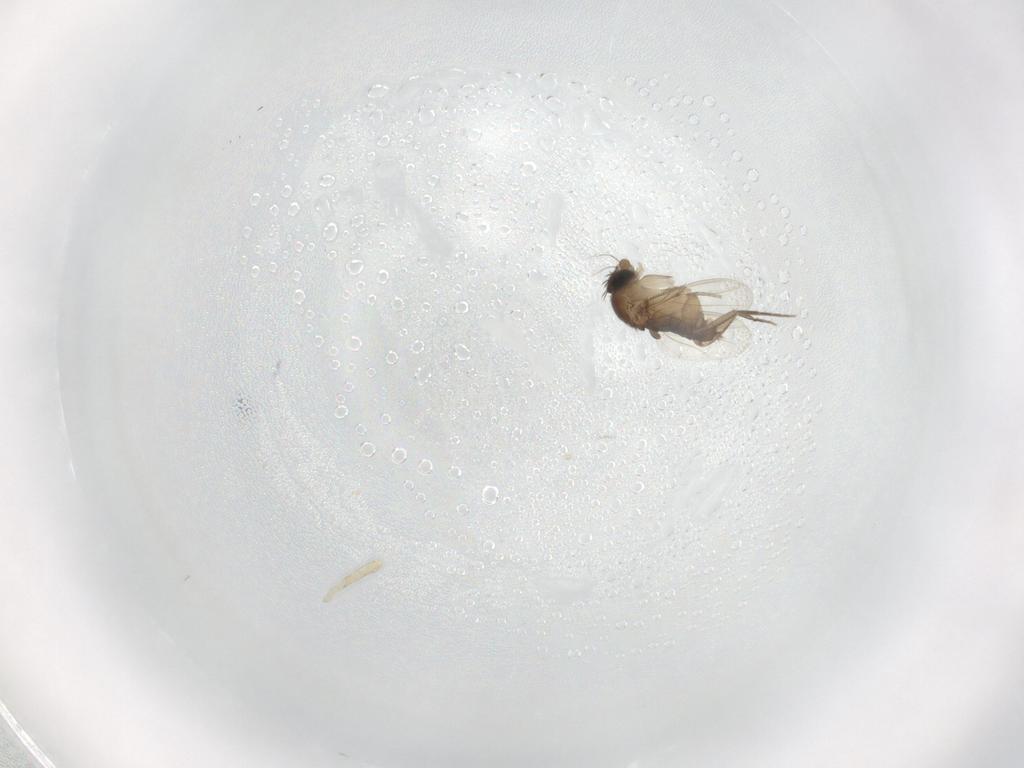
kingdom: Animalia
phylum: Arthropoda
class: Insecta
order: Diptera
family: Phoridae
